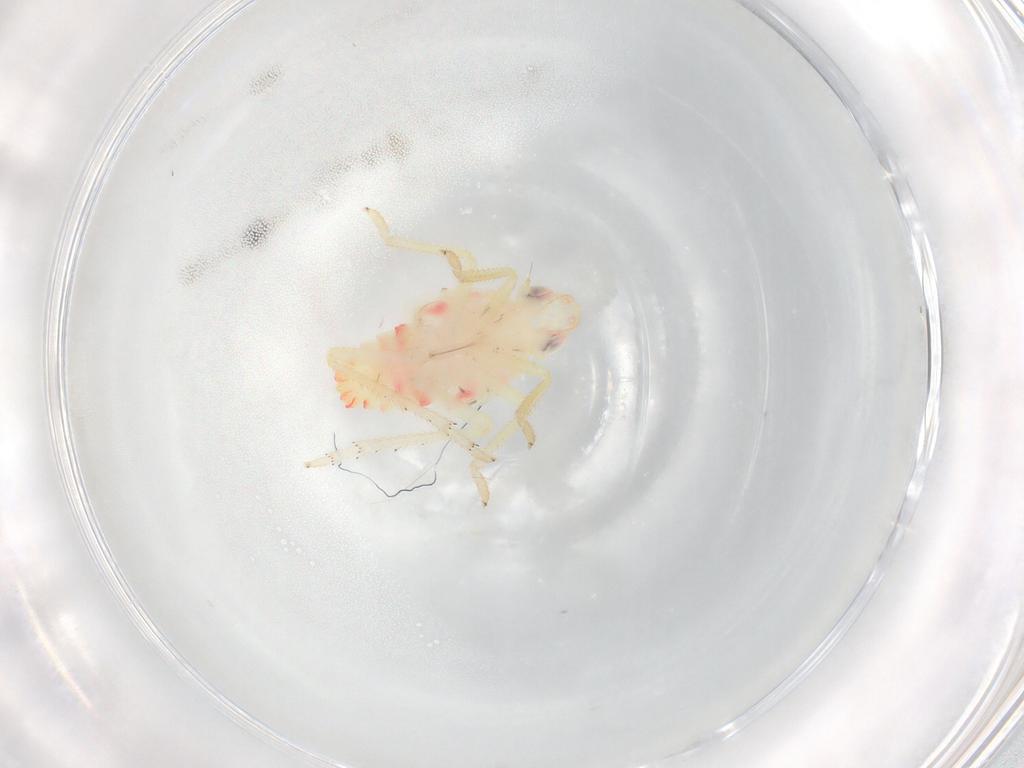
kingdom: Animalia
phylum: Arthropoda
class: Insecta
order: Hemiptera
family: Tropiduchidae
